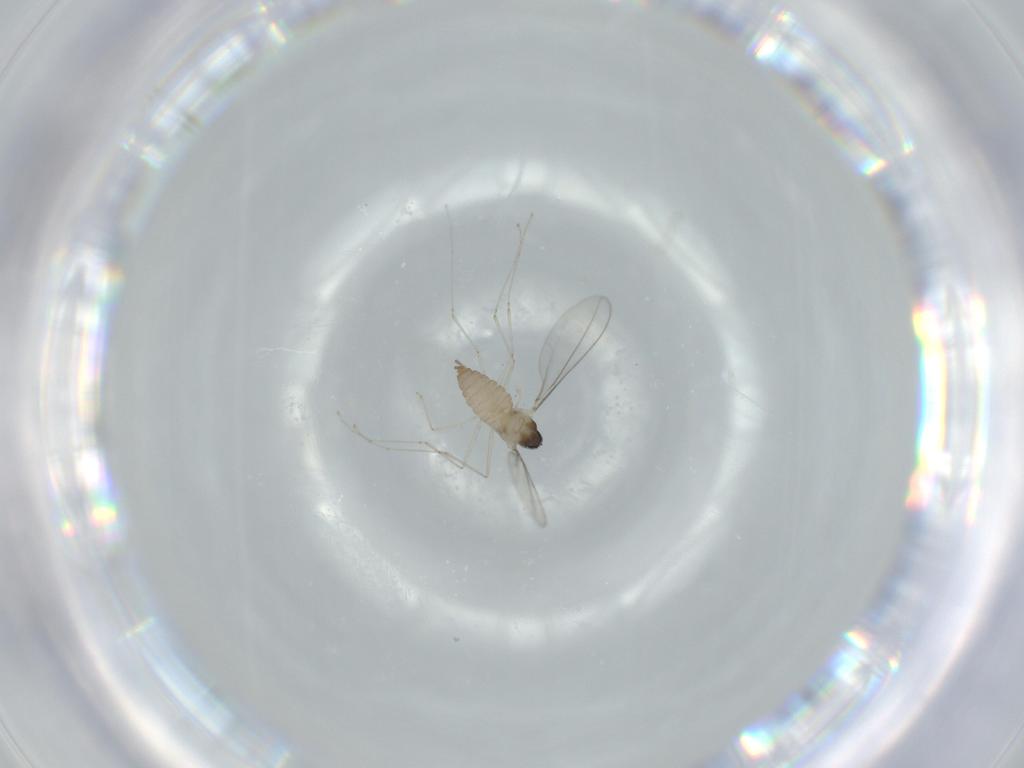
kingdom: Animalia
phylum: Arthropoda
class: Insecta
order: Diptera
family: Cecidomyiidae
